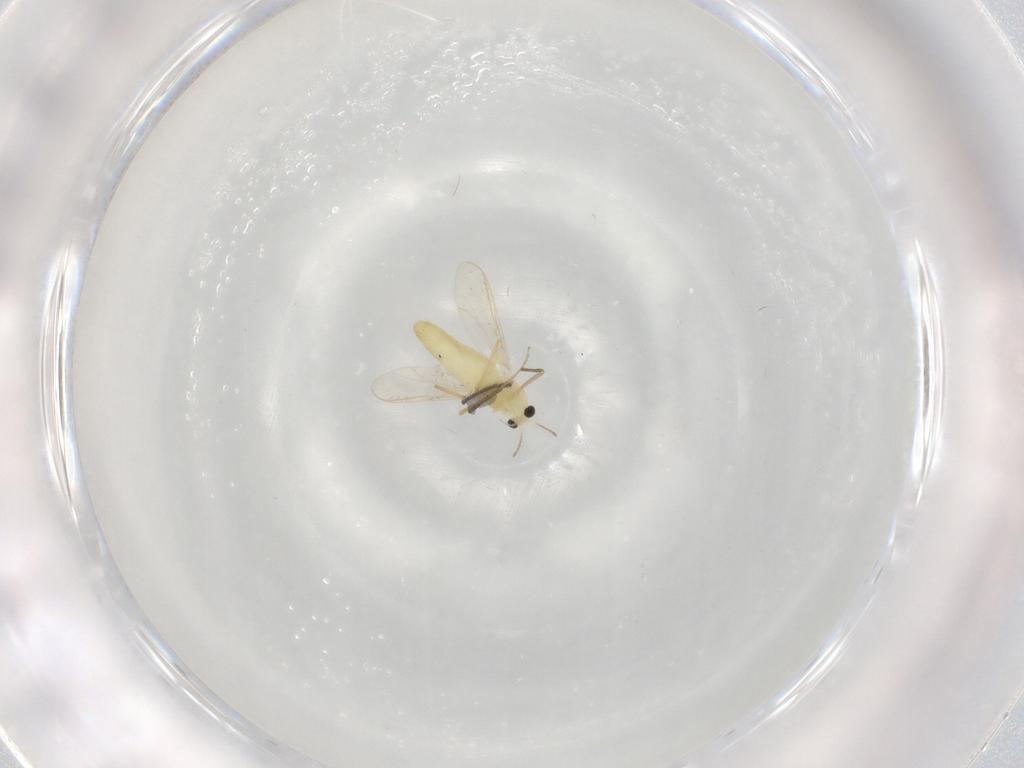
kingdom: Animalia
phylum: Arthropoda
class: Insecta
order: Diptera
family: Chironomidae
